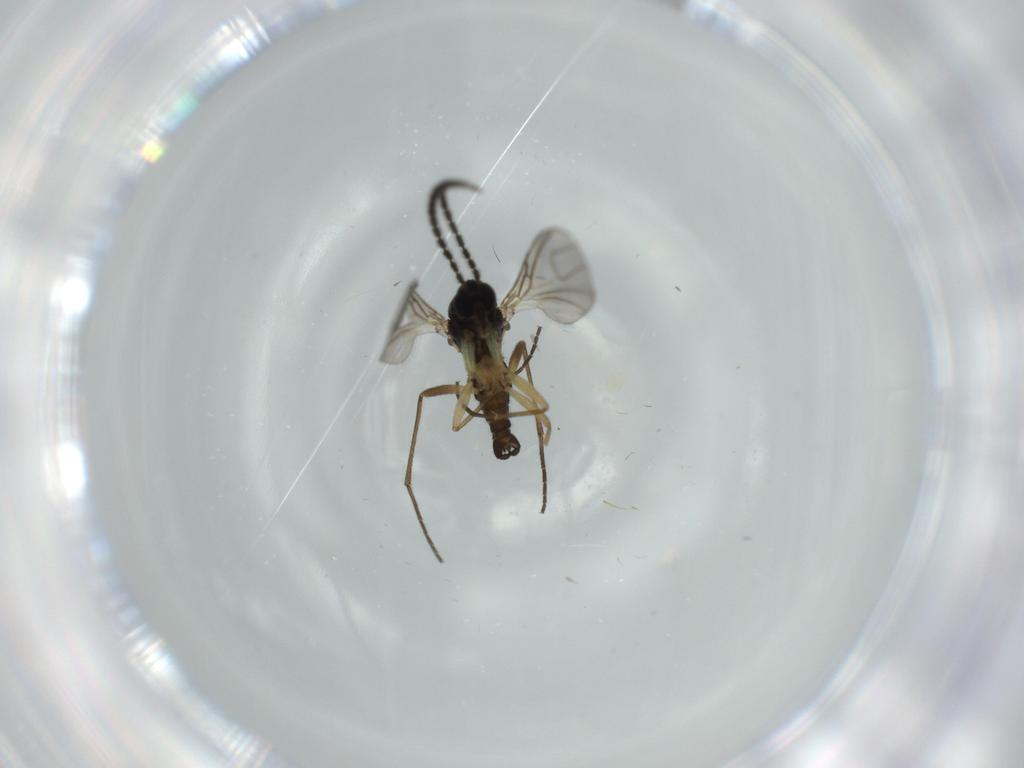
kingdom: Animalia
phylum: Arthropoda
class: Insecta
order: Diptera
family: Sciaridae
